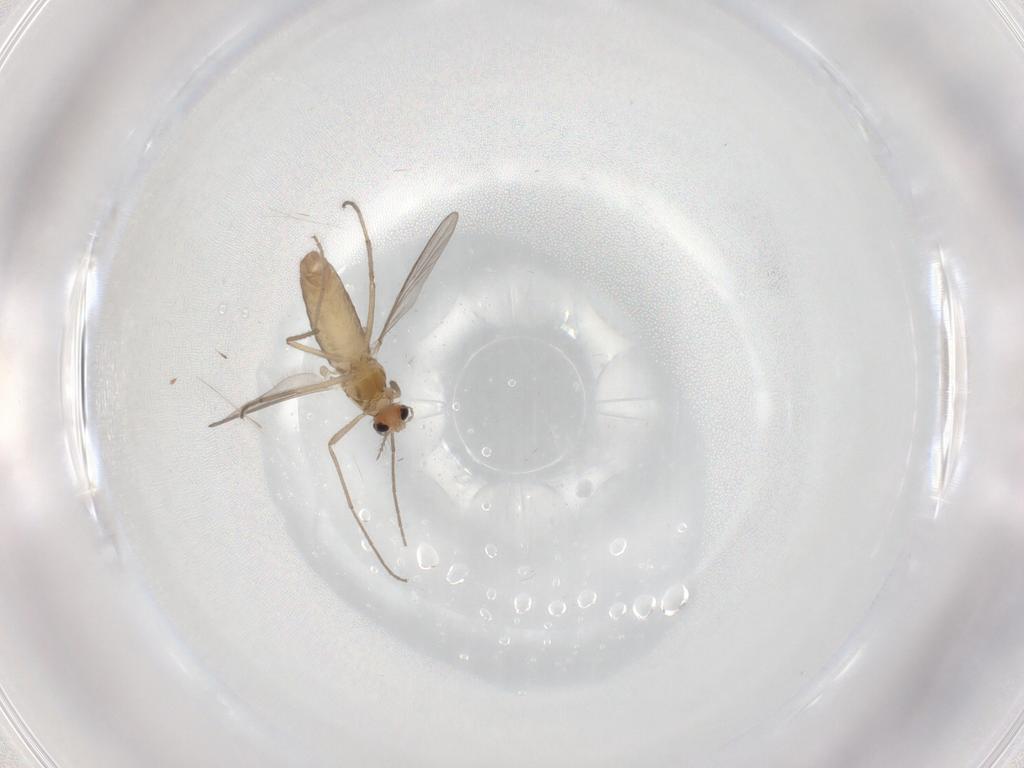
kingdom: Animalia
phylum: Arthropoda
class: Insecta
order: Diptera
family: Chironomidae
